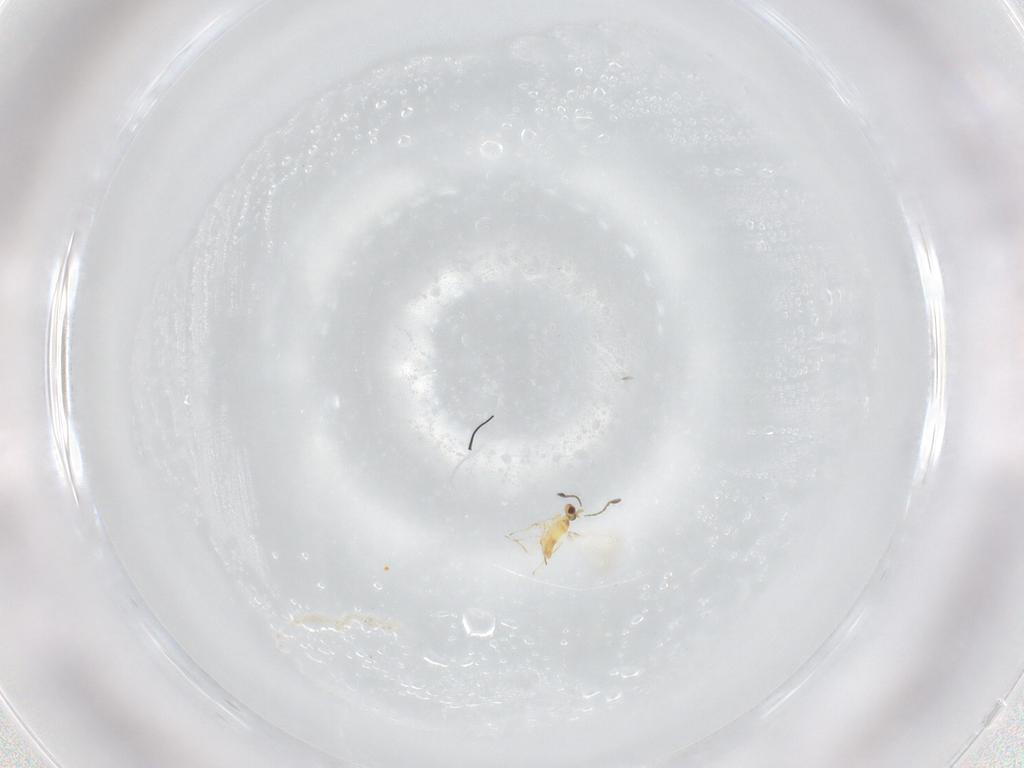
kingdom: Animalia
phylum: Arthropoda
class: Insecta
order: Hymenoptera
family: Mymaridae
